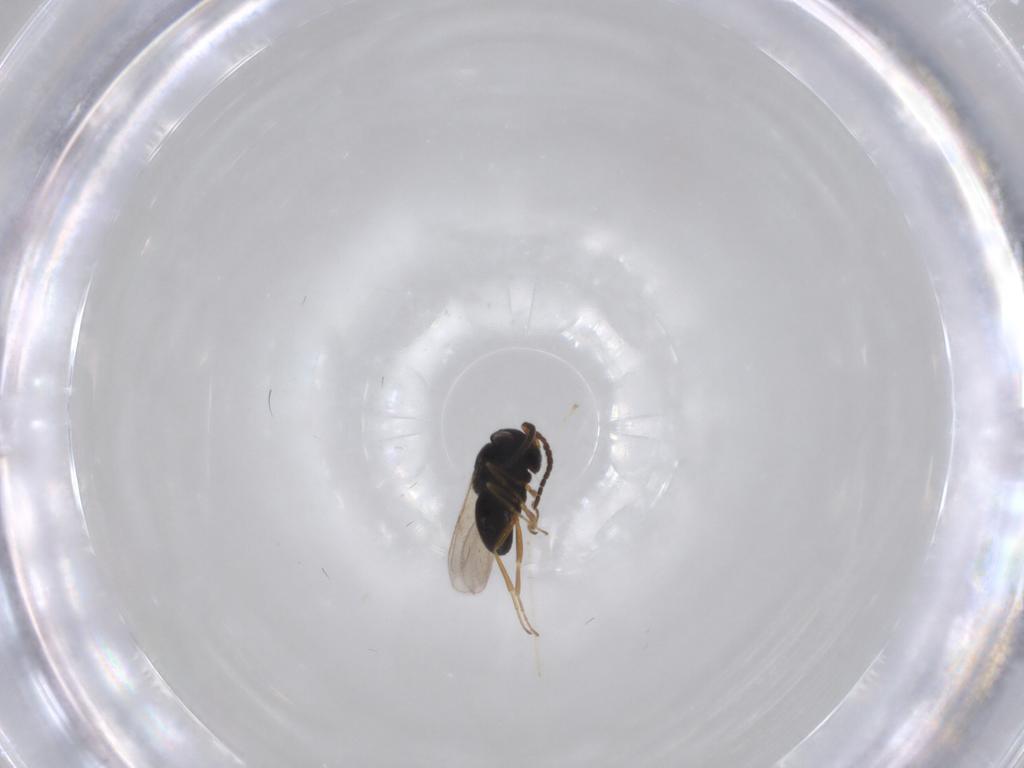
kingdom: Animalia
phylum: Arthropoda
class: Insecta
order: Hymenoptera
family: Scelionidae
